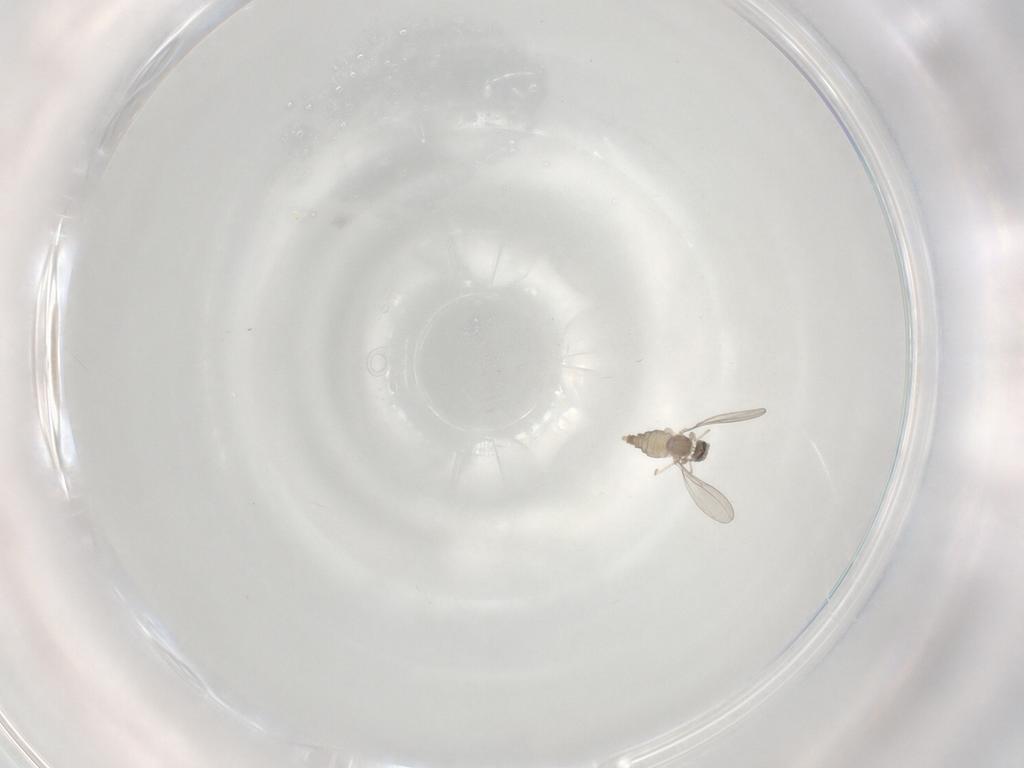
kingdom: Animalia
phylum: Arthropoda
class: Insecta
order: Diptera
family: Cecidomyiidae
